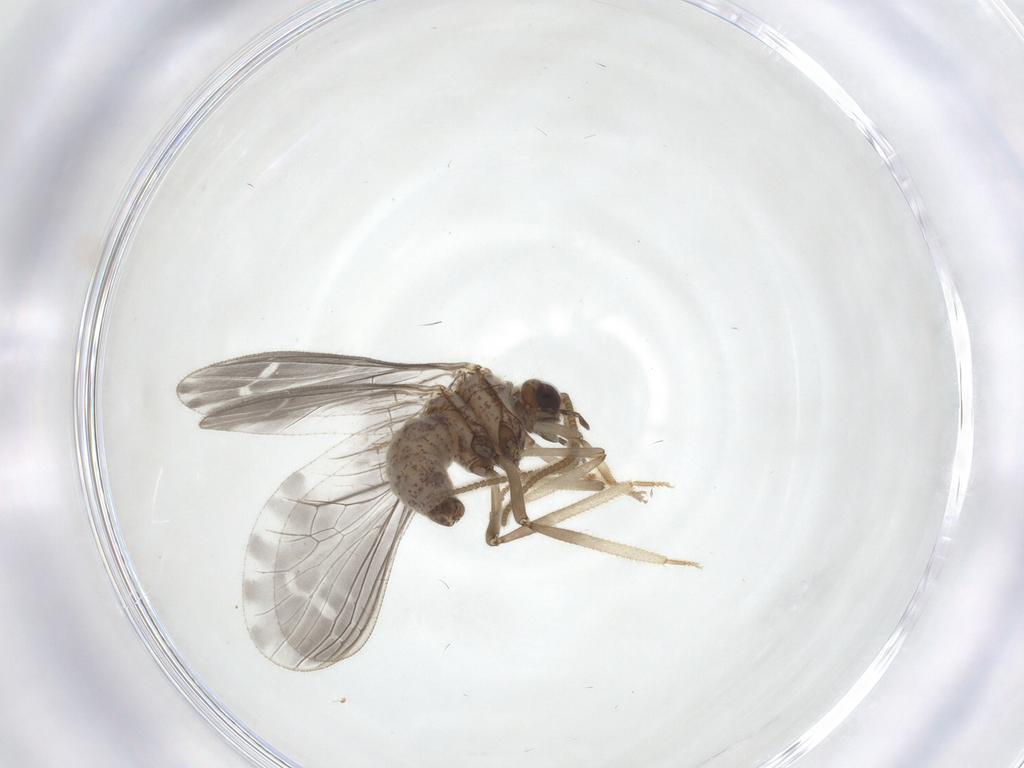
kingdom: Animalia
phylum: Arthropoda
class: Insecta
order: Neuroptera
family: Coniopterygidae
